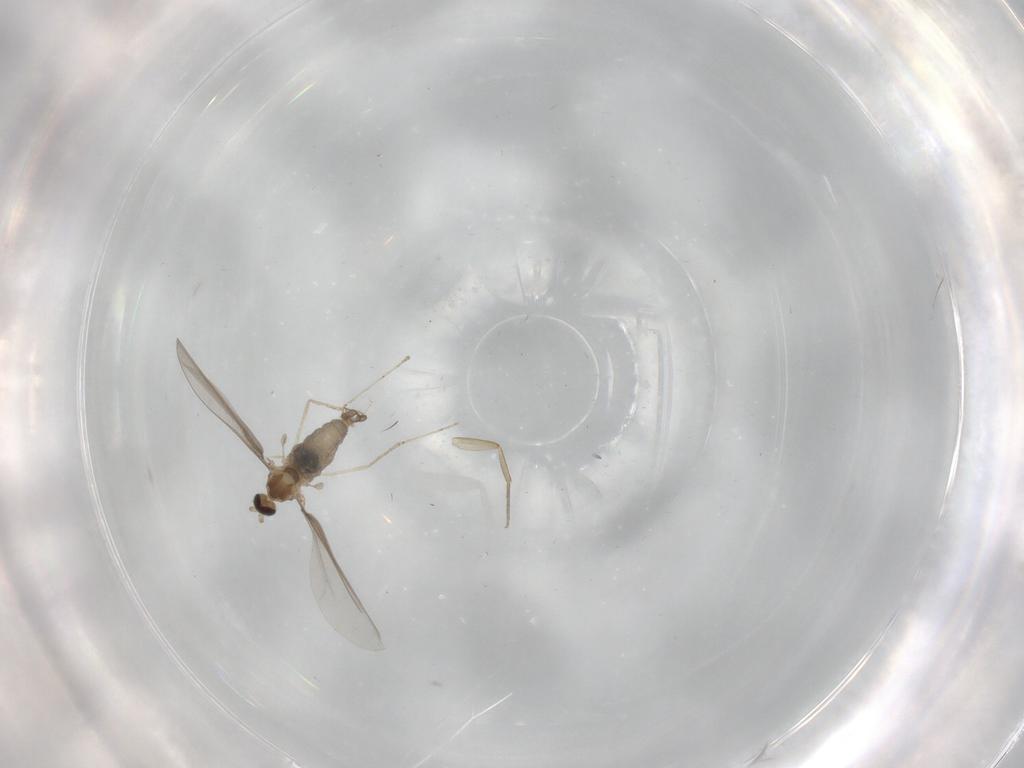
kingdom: Animalia
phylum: Arthropoda
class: Insecta
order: Diptera
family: Cecidomyiidae
